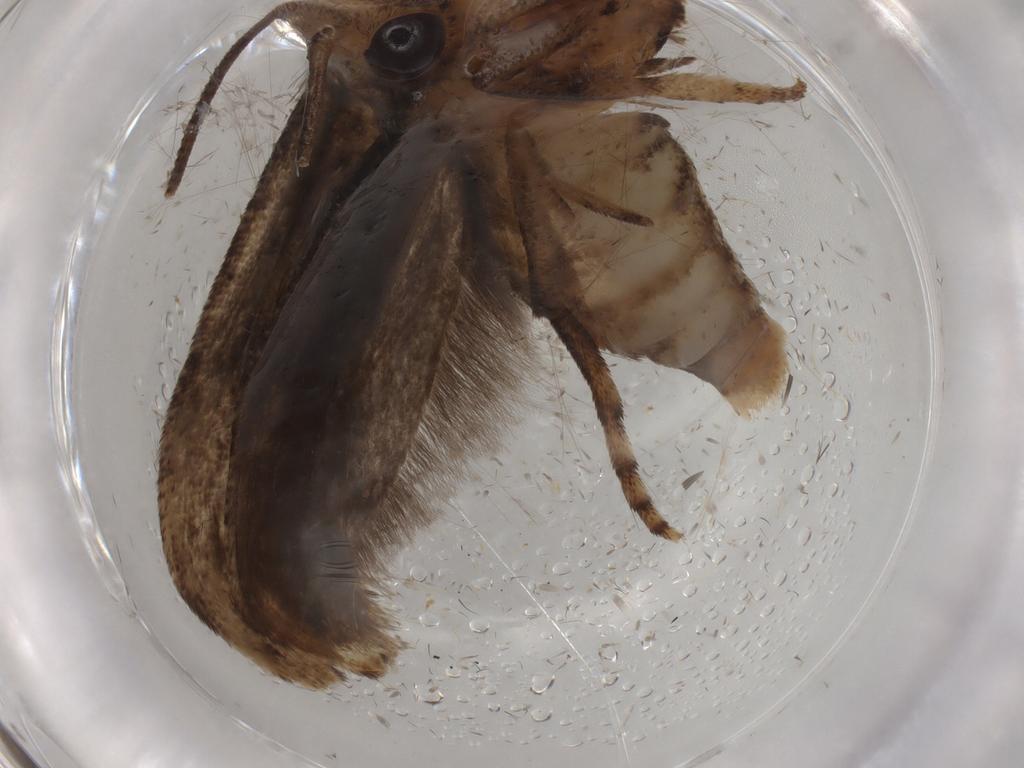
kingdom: Animalia
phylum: Arthropoda
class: Insecta
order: Lepidoptera
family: Yponomeutidae
